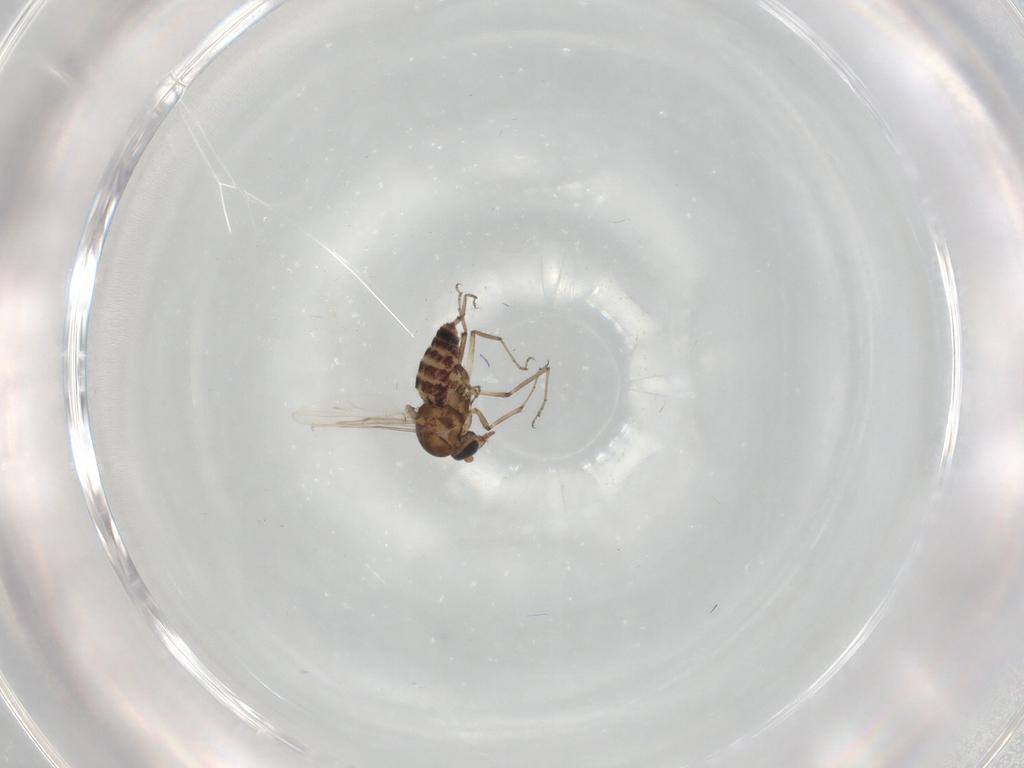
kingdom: Animalia
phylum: Arthropoda
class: Insecta
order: Diptera
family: Ceratopogonidae
